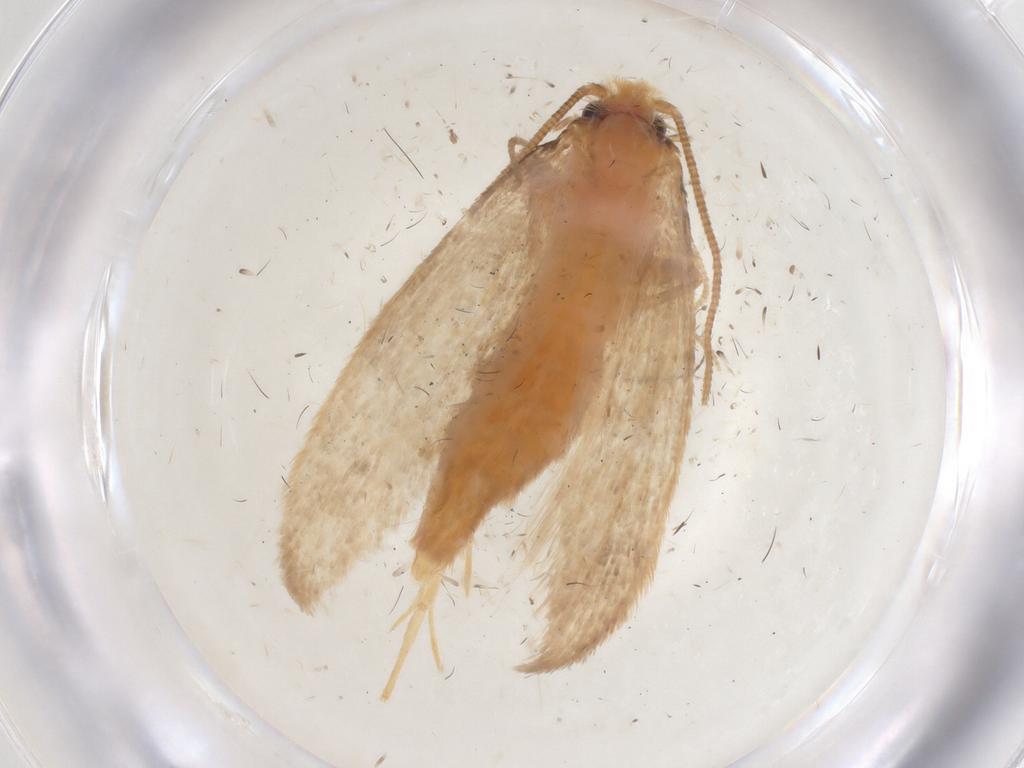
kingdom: Animalia
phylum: Arthropoda
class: Insecta
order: Lepidoptera
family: Tineidae
